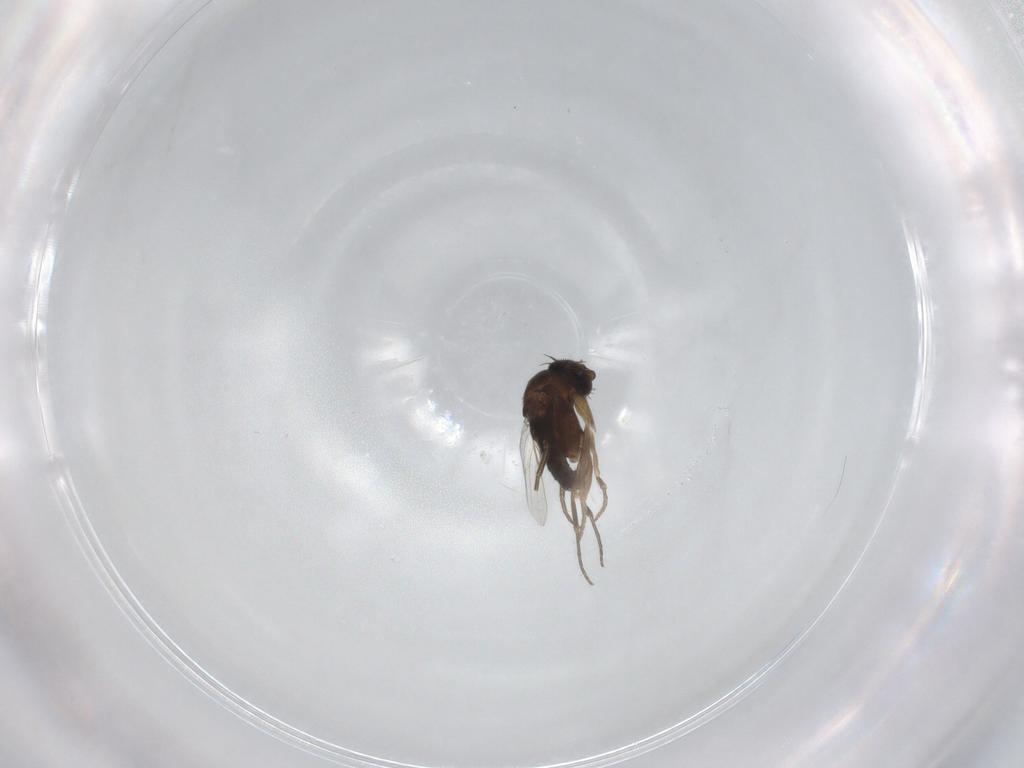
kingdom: Animalia
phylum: Arthropoda
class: Insecta
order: Diptera
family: Phoridae
